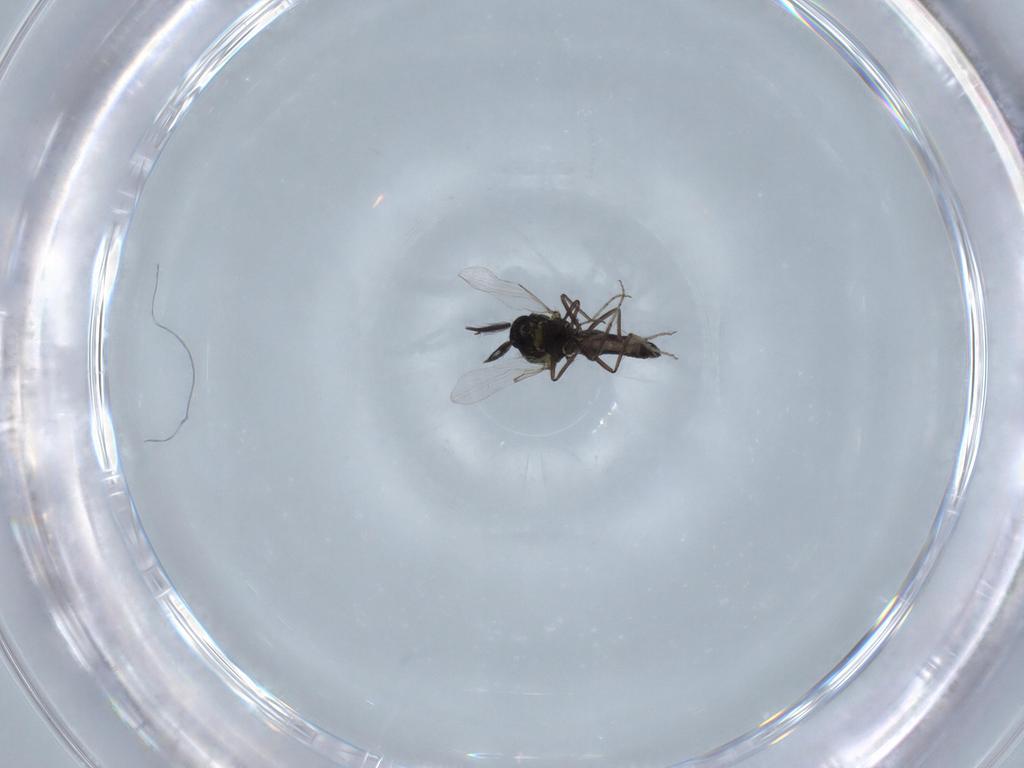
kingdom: Animalia
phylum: Arthropoda
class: Insecta
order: Diptera
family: Ceratopogonidae
